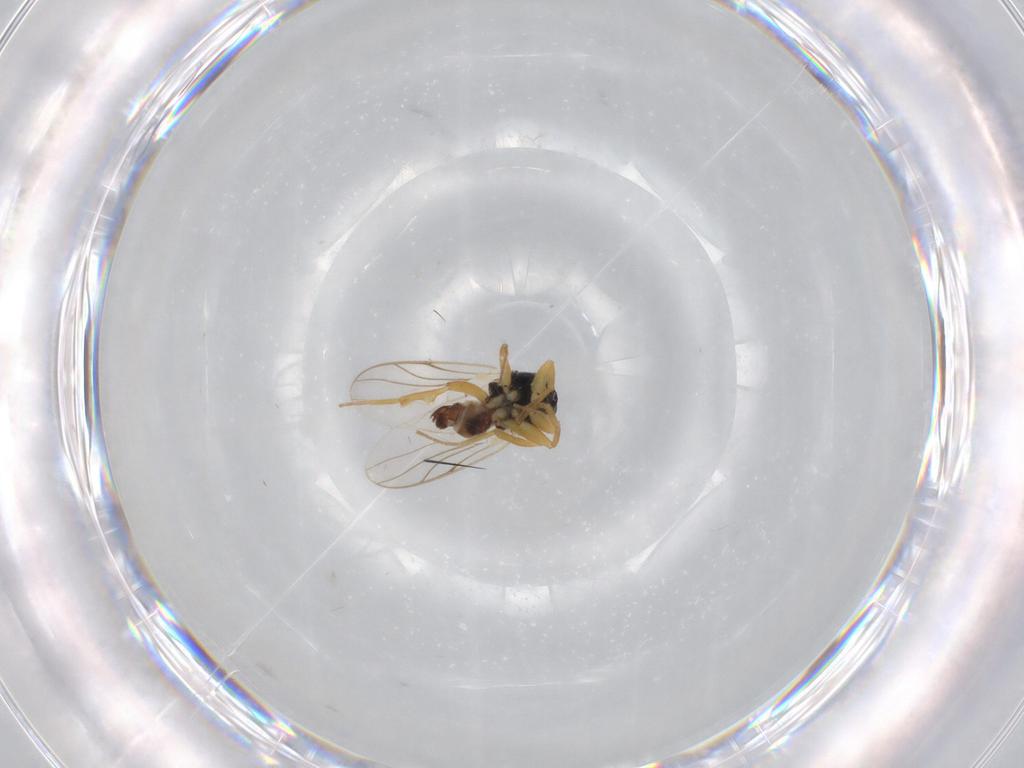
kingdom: Animalia
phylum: Arthropoda
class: Insecta
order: Diptera
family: Hybotidae
